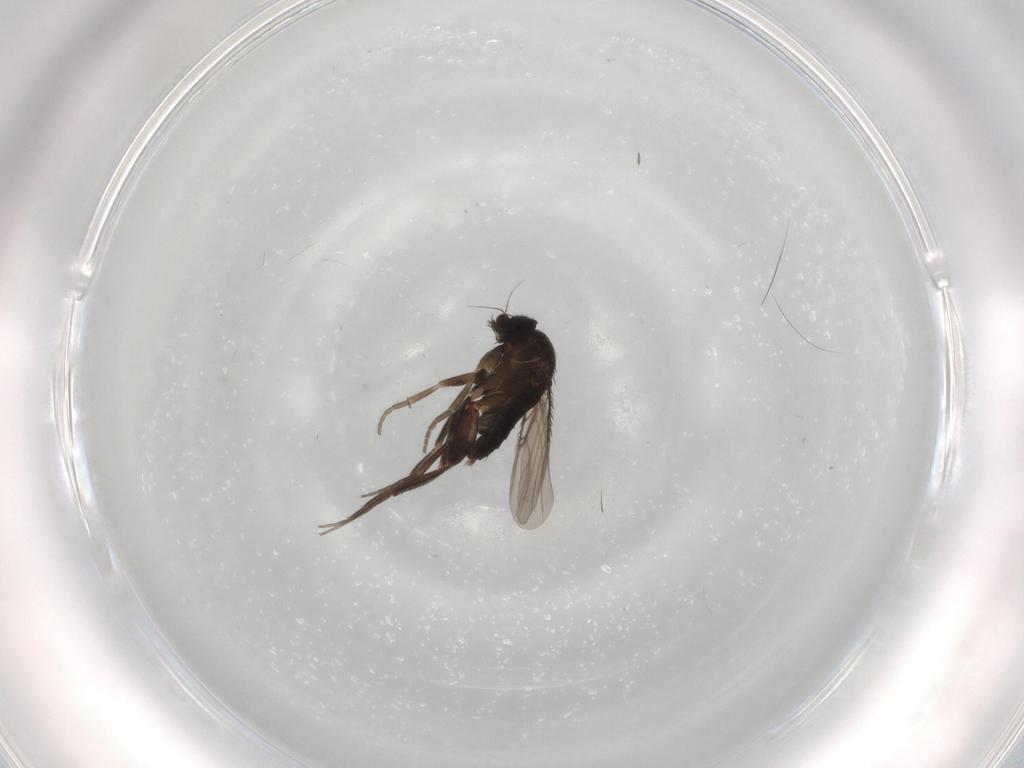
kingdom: Animalia
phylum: Arthropoda
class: Insecta
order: Diptera
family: Phoridae
